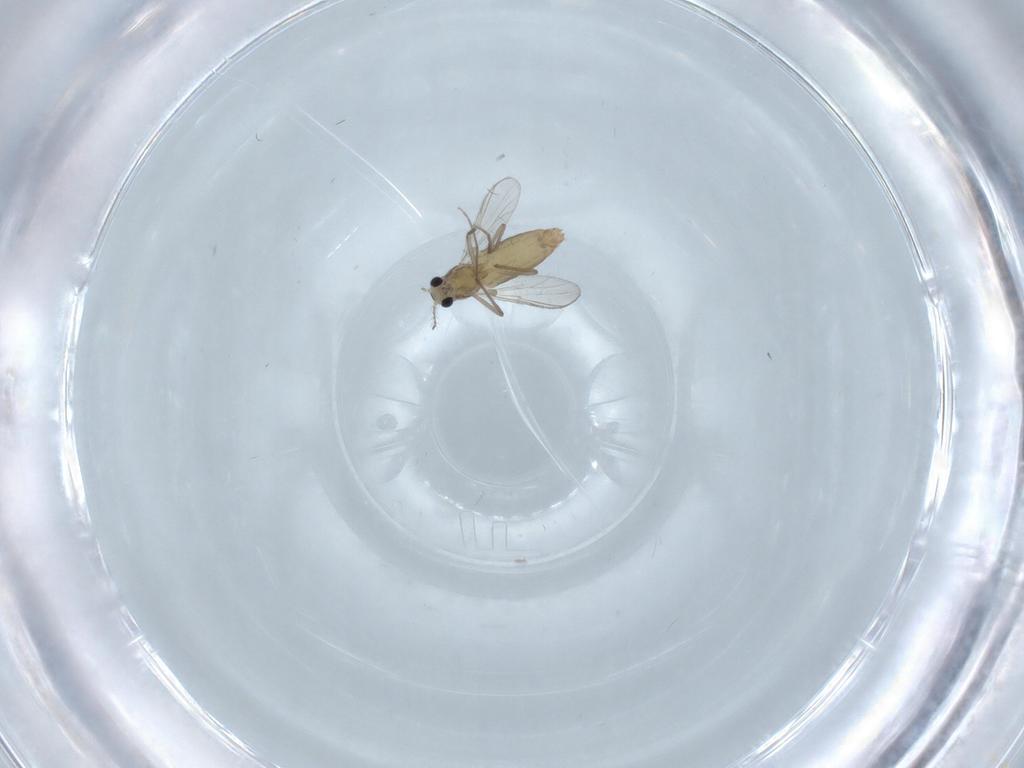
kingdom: Animalia
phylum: Arthropoda
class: Insecta
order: Diptera
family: Chironomidae
